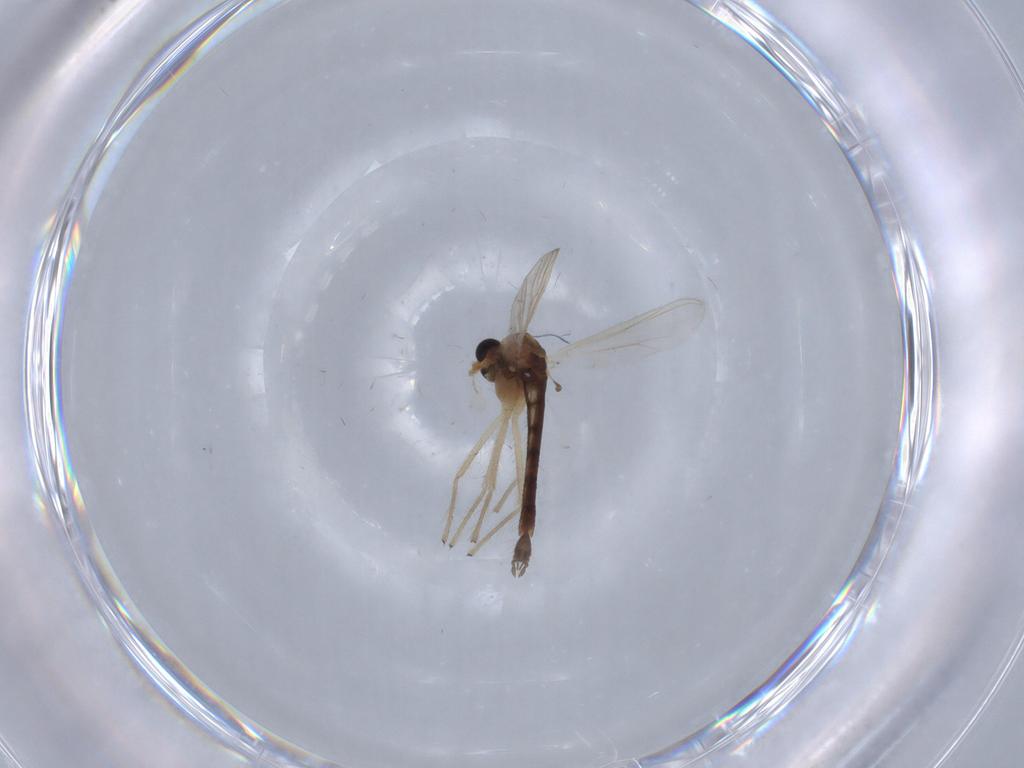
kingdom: Animalia
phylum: Arthropoda
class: Insecta
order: Diptera
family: Chironomidae
